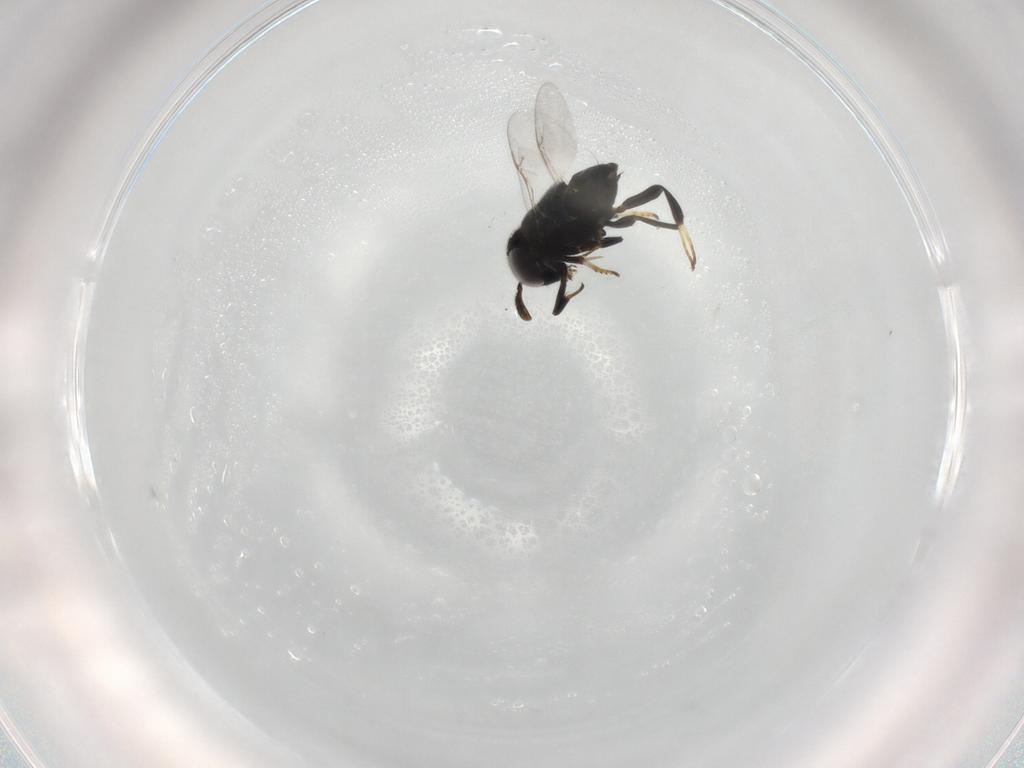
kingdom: Animalia
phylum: Arthropoda
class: Insecta
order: Hymenoptera
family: Encyrtidae
